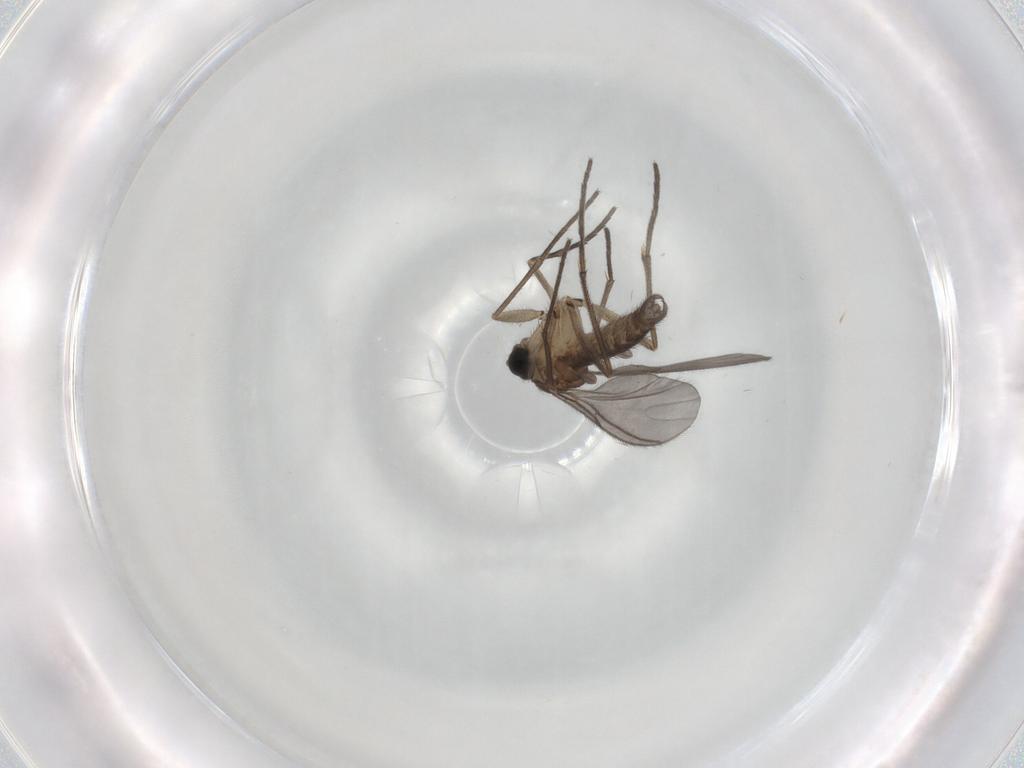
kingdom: Animalia
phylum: Arthropoda
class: Insecta
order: Diptera
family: Sciaridae
